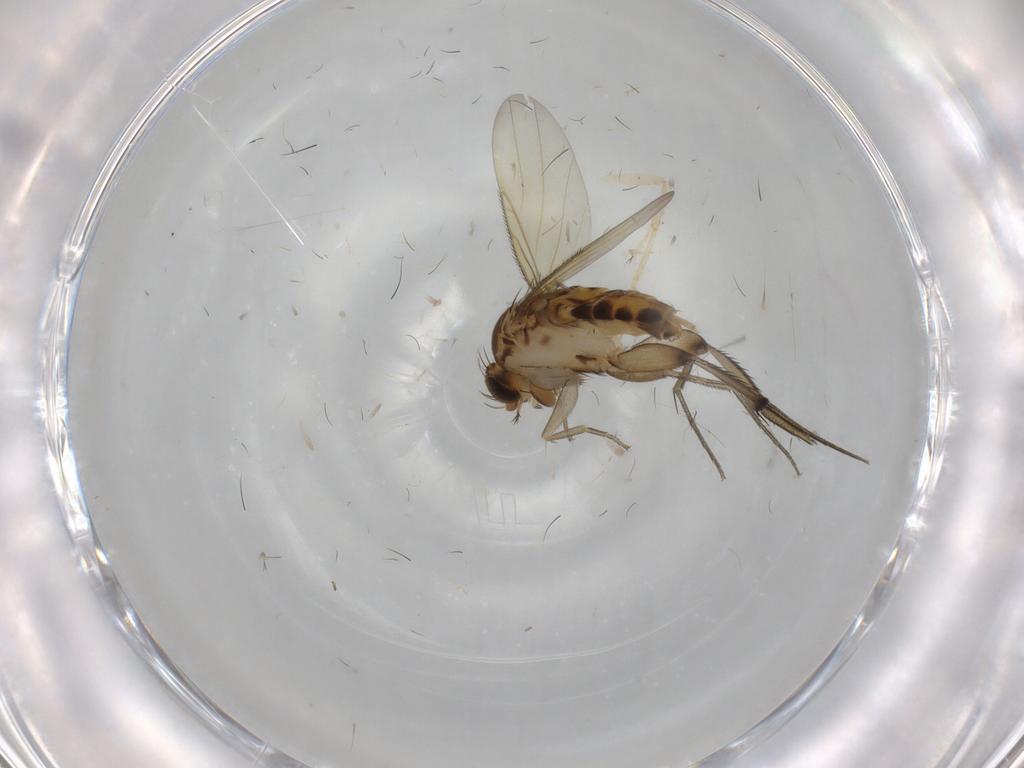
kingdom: Animalia
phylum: Arthropoda
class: Insecta
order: Diptera
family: Phoridae
